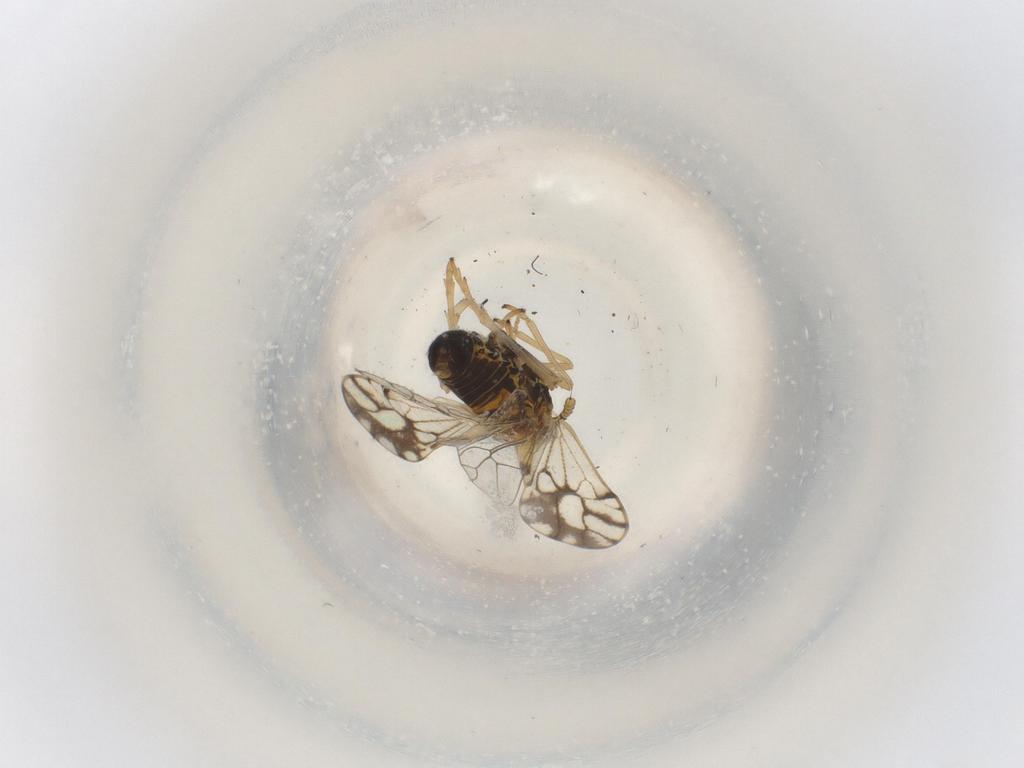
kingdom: Animalia
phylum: Arthropoda
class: Insecta
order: Hemiptera
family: Delphacidae
